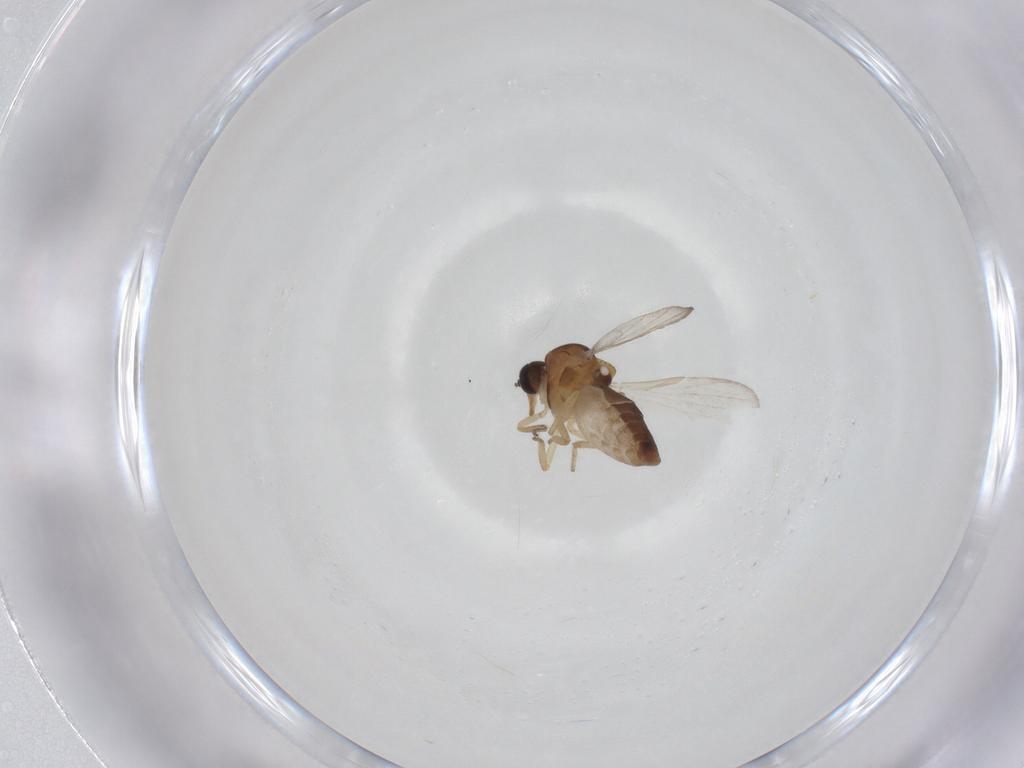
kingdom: Animalia
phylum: Arthropoda
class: Insecta
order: Diptera
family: Ceratopogonidae
